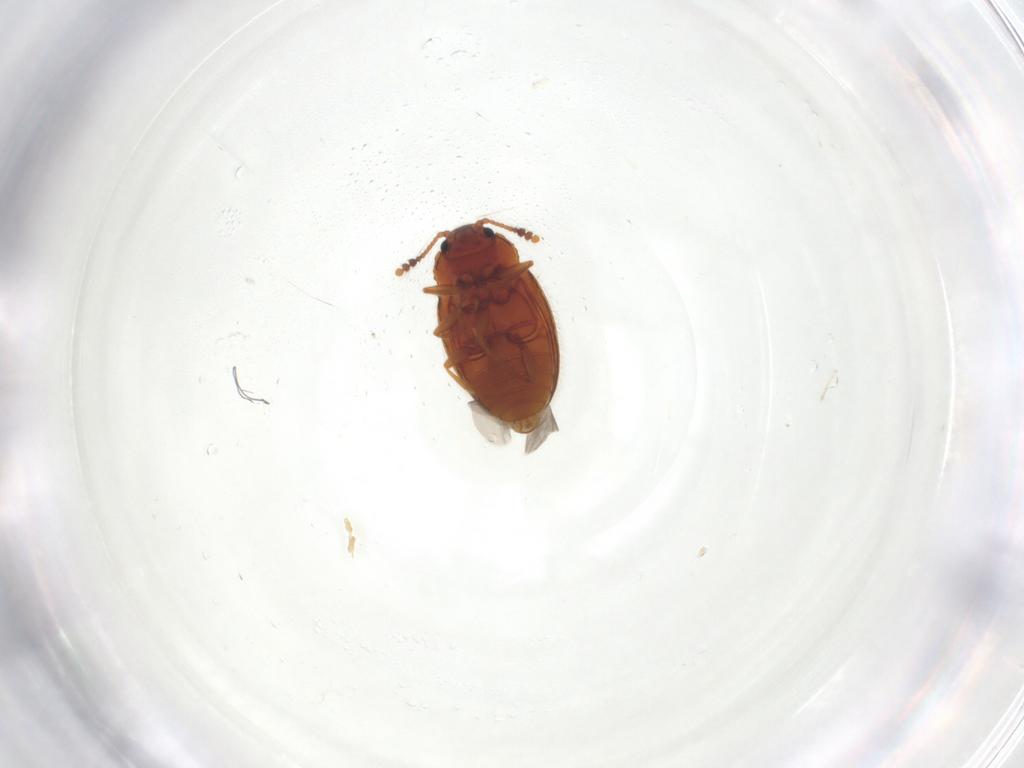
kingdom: Animalia
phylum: Arthropoda
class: Insecta
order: Coleoptera
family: Erotylidae
